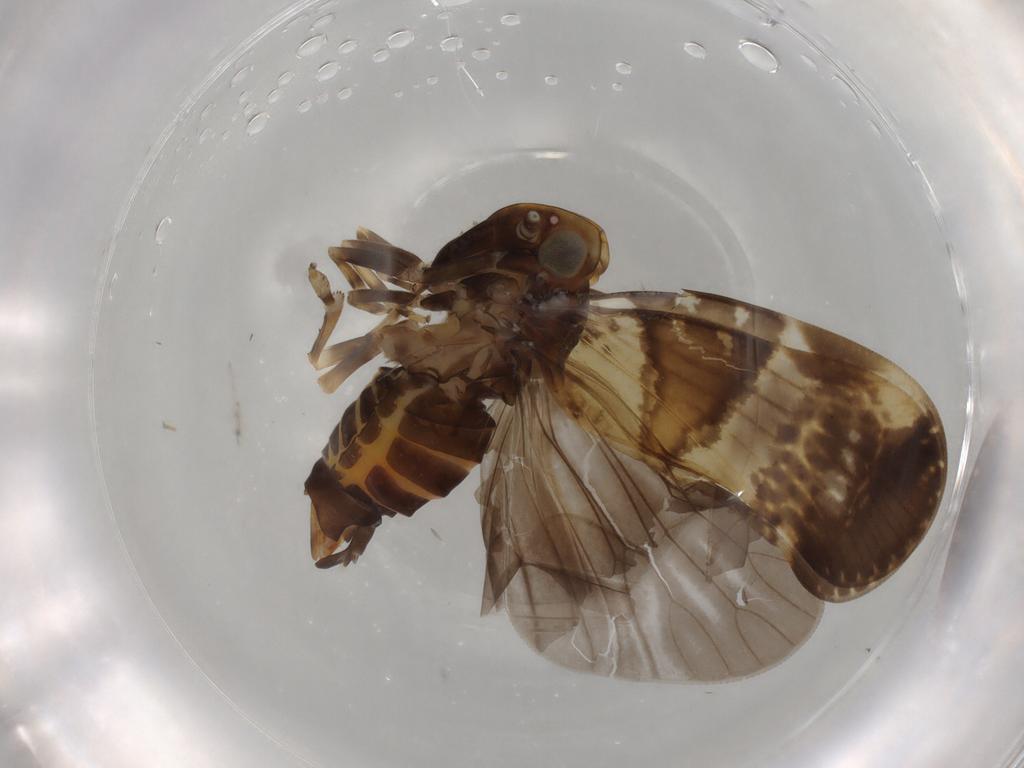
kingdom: Animalia
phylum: Arthropoda
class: Insecta
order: Hemiptera
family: Cixiidae
